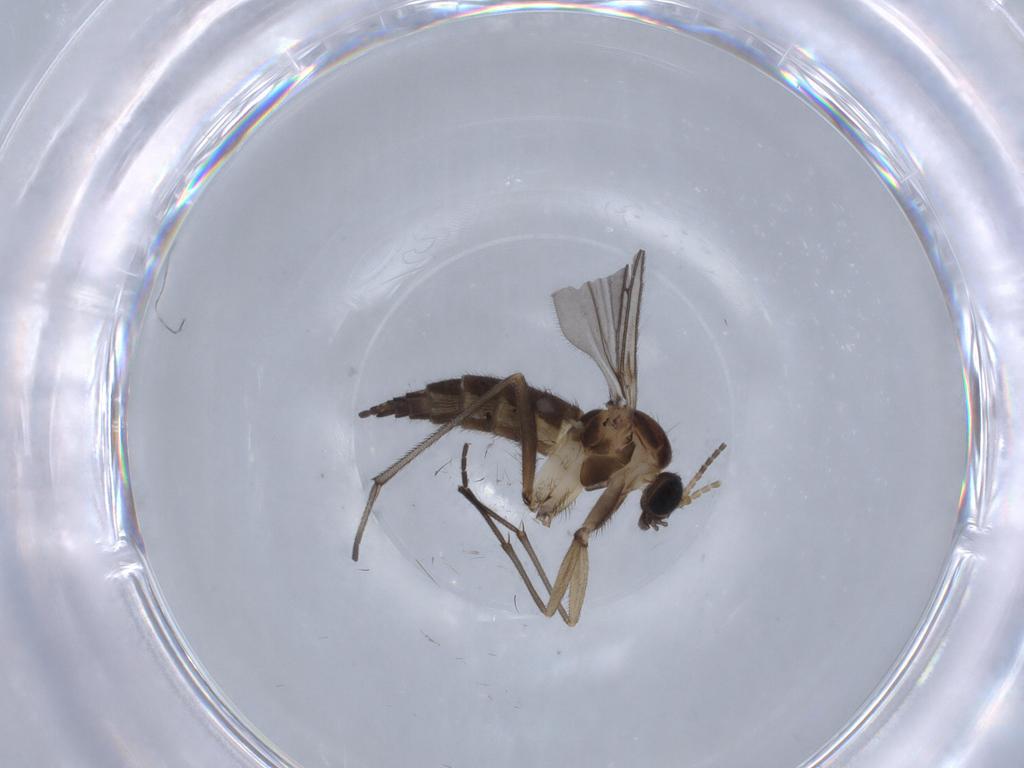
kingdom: Animalia
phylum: Arthropoda
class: Insecta
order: Diptera
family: Sciaridae
